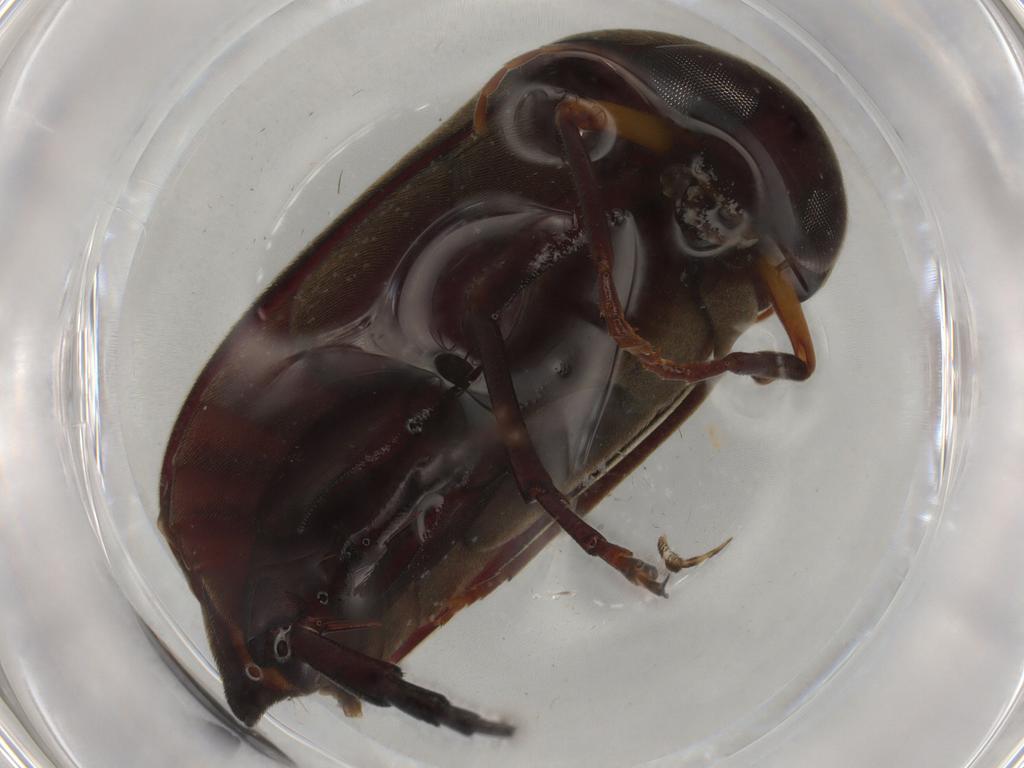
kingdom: Animalia
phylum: Arthropoda
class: Insecta
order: Coleoptera
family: Mordellidae
